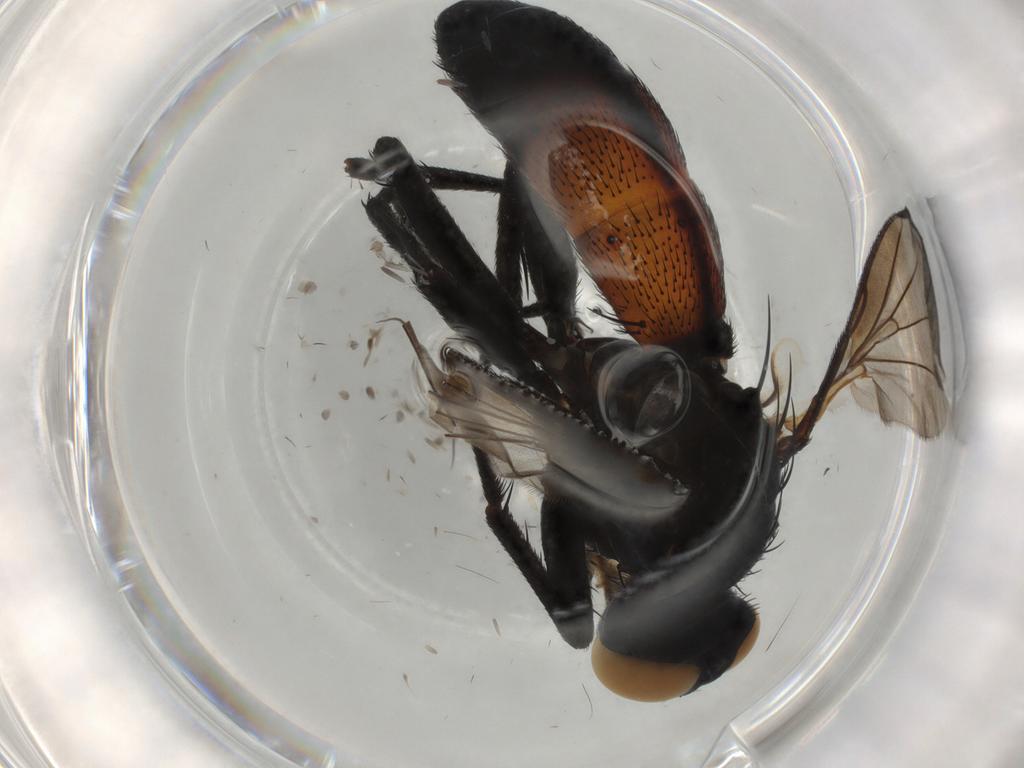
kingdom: Animalia
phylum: Arthropoda
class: Insecta
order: Diptera
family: Tachinidae
